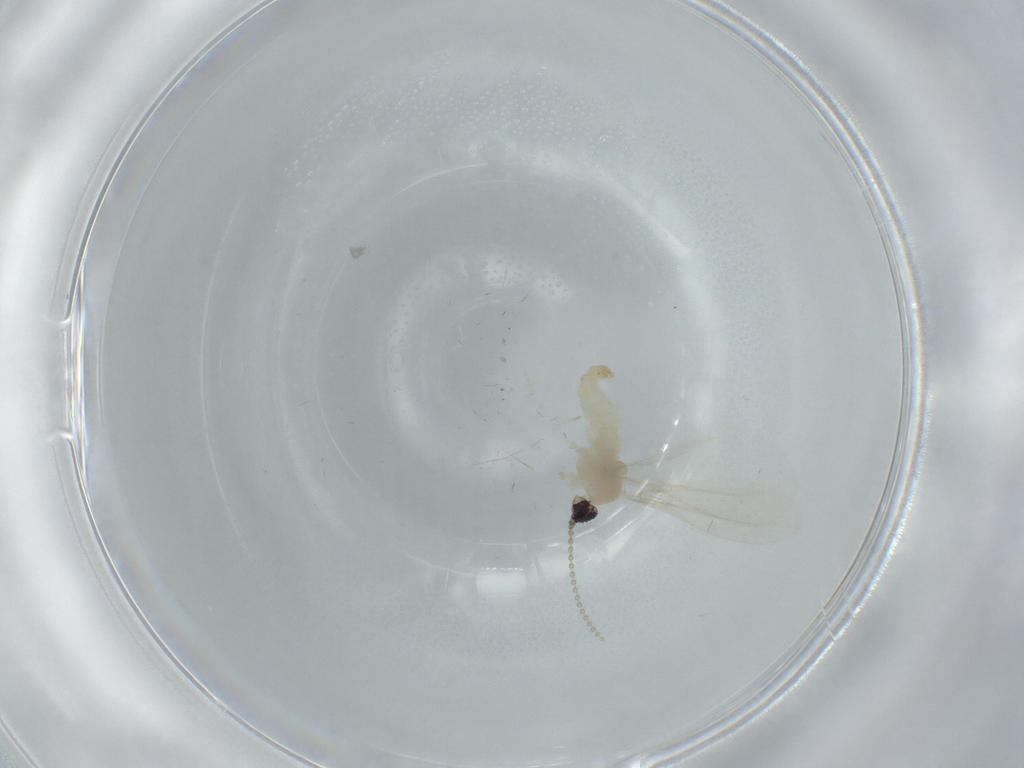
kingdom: Animalia
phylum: Arthropoda
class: Insecta
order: Diptera
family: Cecidomyiidae
